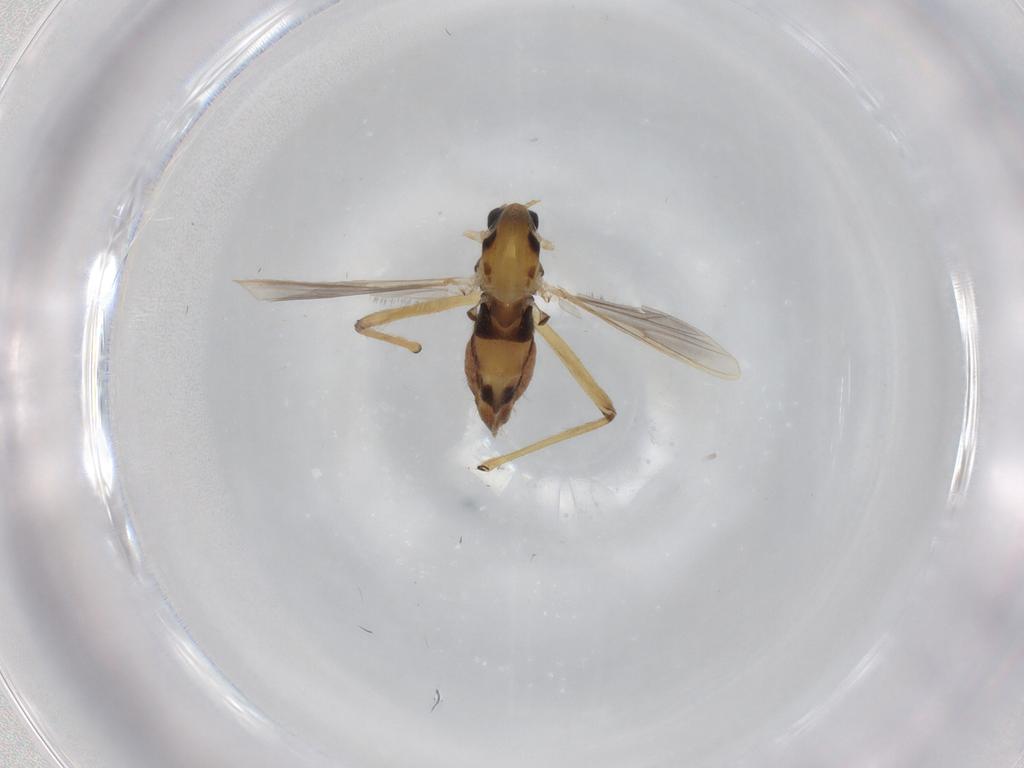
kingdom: Animalia
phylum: Arthropoda
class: Insecta
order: Diptera
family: Chironomidae
